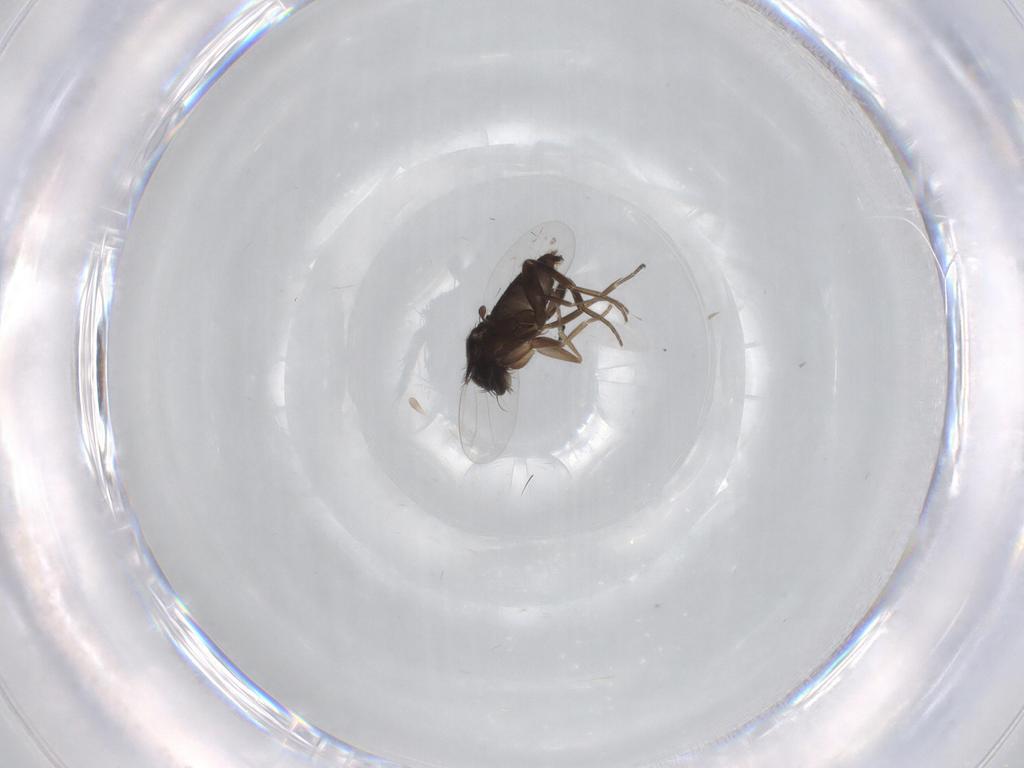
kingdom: Animalia
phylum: Arthropoda
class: Insecta
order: Diptera
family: Phoridae
